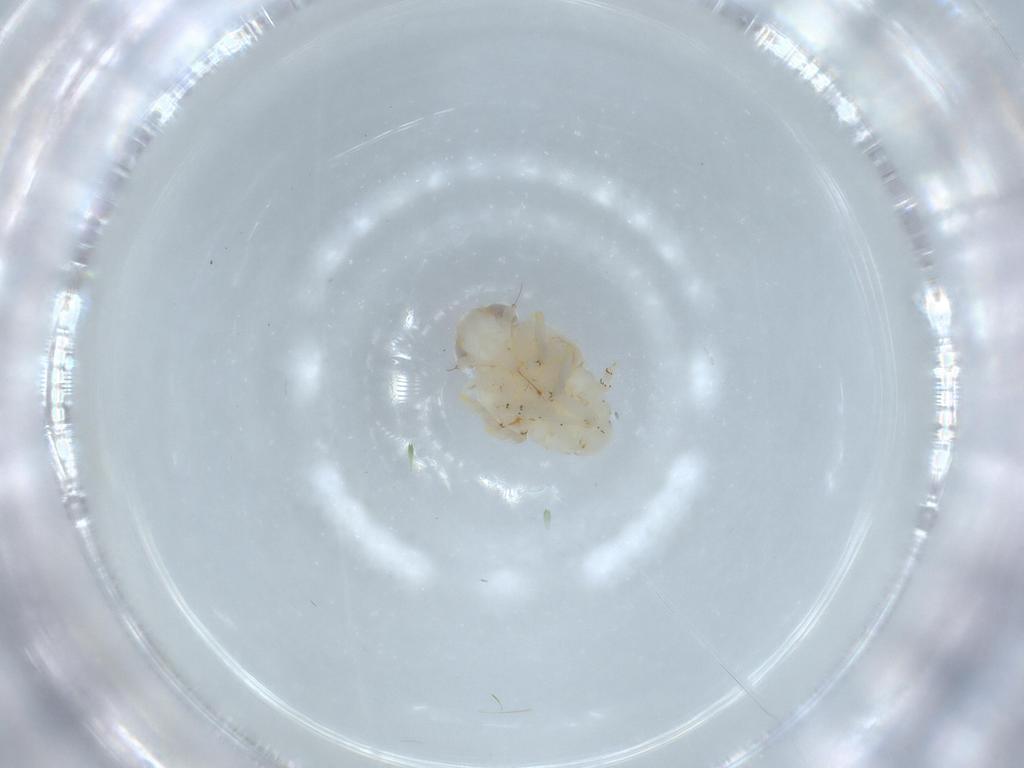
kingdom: Animalia
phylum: Arthropoda
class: Insecta
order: Hemiptera
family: Nogodinidae
